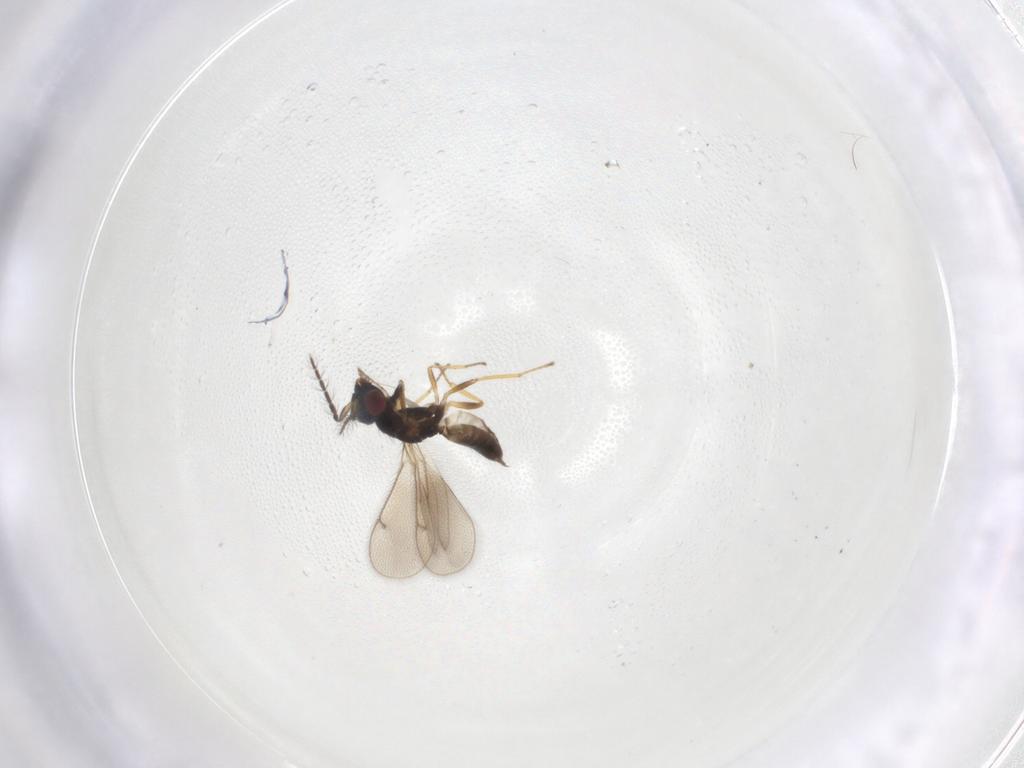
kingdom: Animalia
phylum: Arthropoda
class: Insecta
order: Hymenoptera
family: Eulophidae
